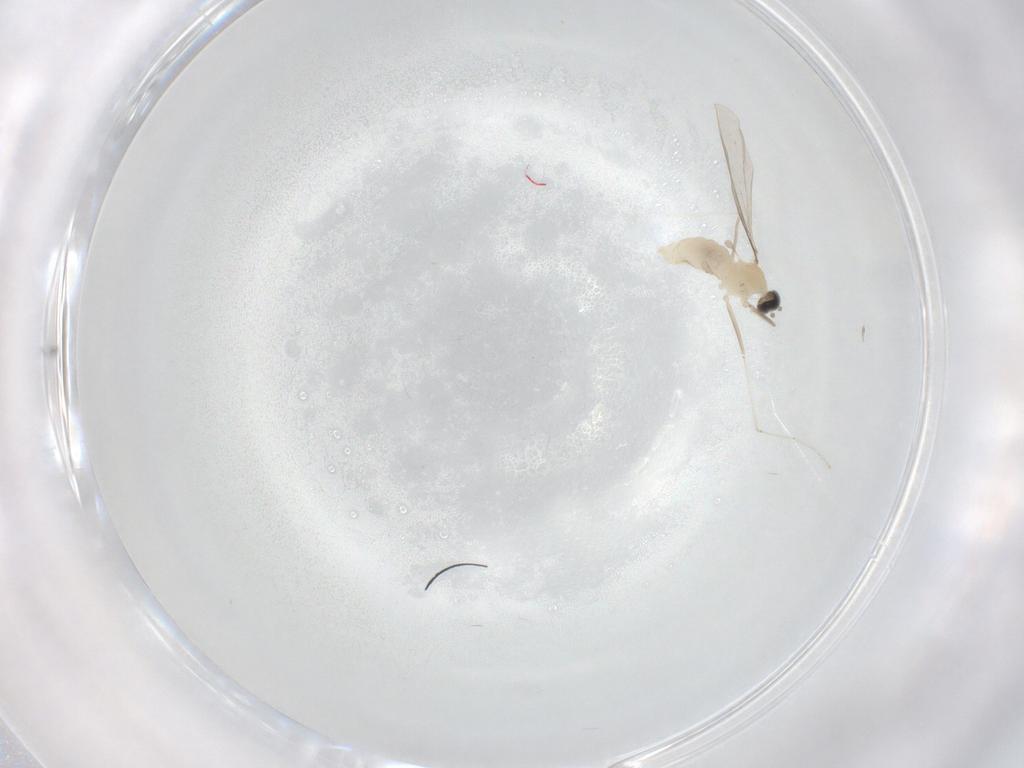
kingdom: Animalia
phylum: Arthropoda
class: Insecta
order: Diptera
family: Cecidomyiidae
